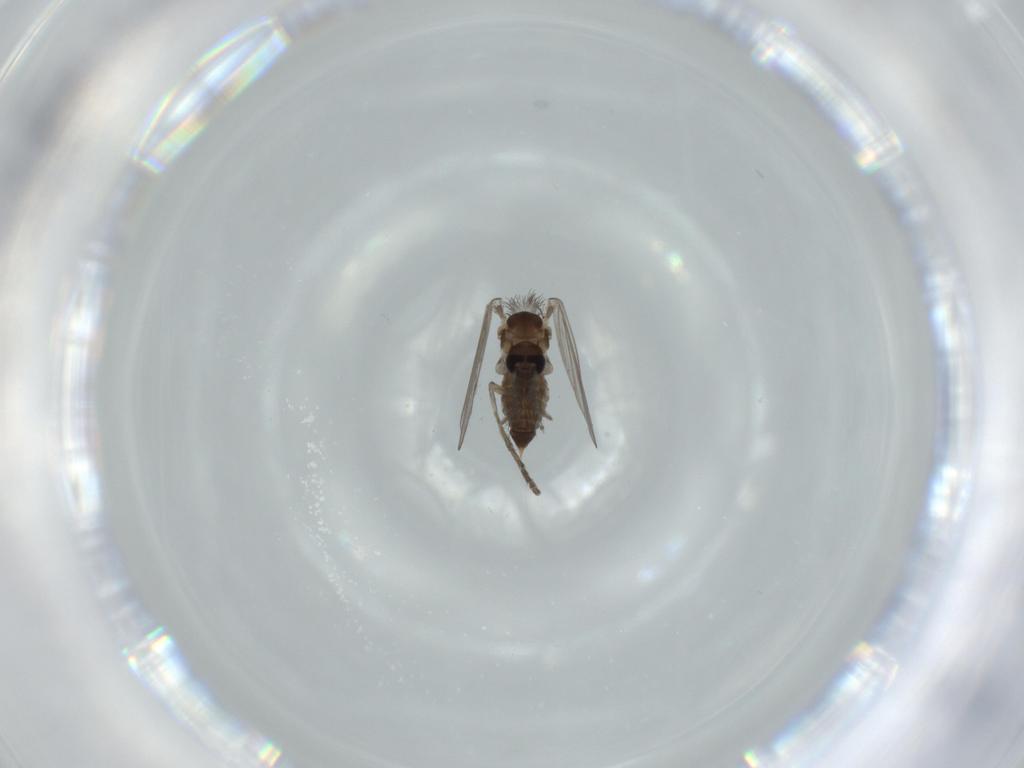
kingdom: Animalia
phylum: Arthropoda
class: Insecta
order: Diptera
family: Psychodidae
